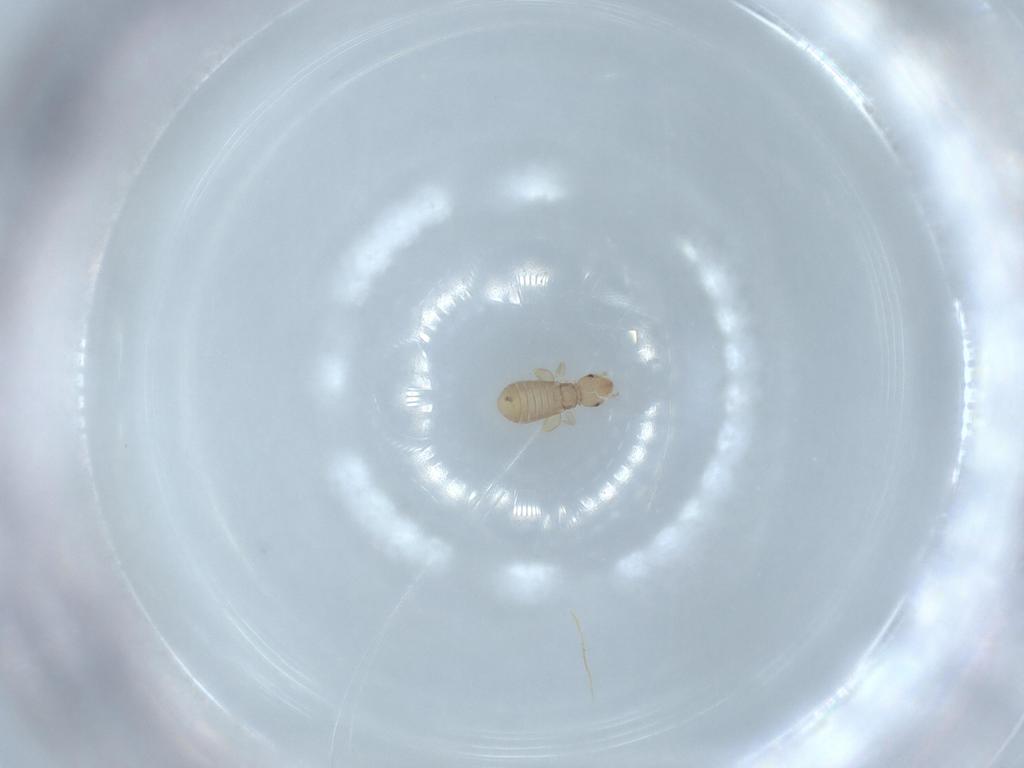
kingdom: Animalia
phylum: Arthropoda
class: Insecta
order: Psocodea
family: Liposcelididae
